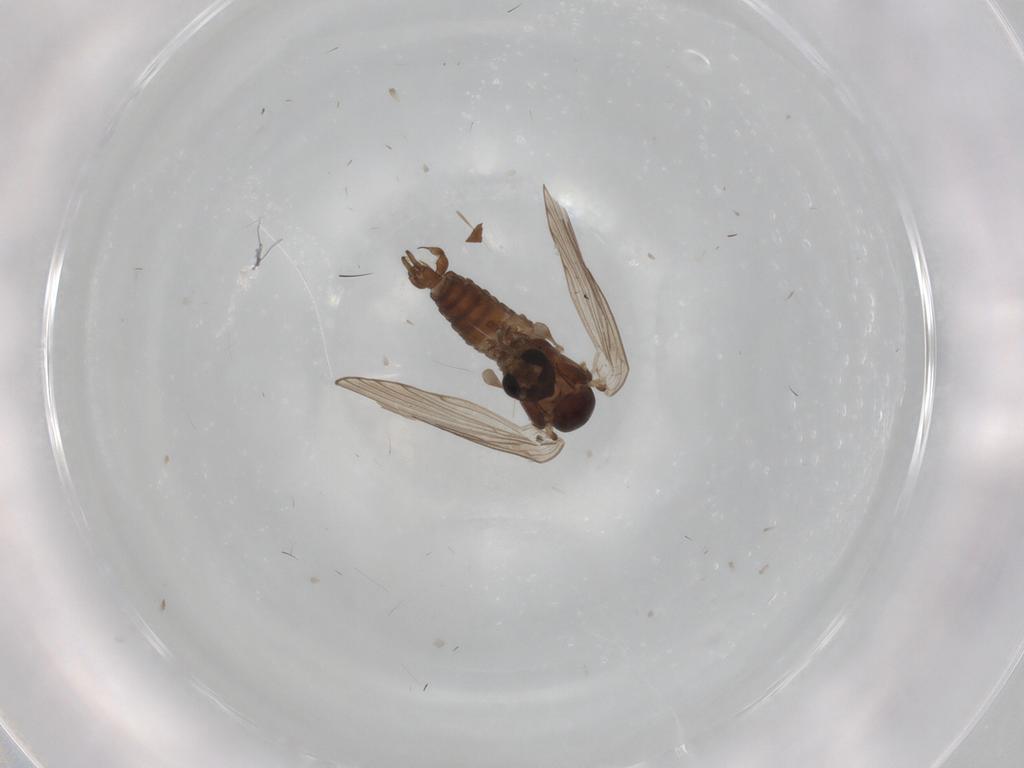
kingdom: Animalia
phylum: Arthropoda
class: Insecta
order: Diptera
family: Psychodidae
